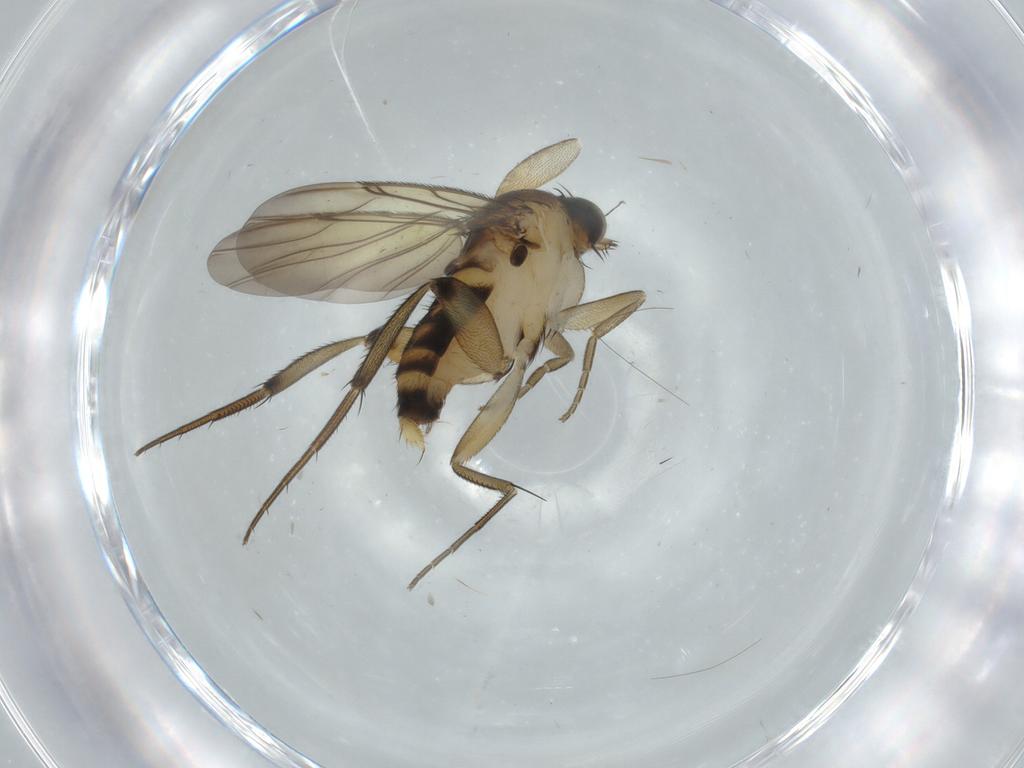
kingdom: Animalia
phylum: Arthropoda
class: Insecta
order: Diptera
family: Phoridae
